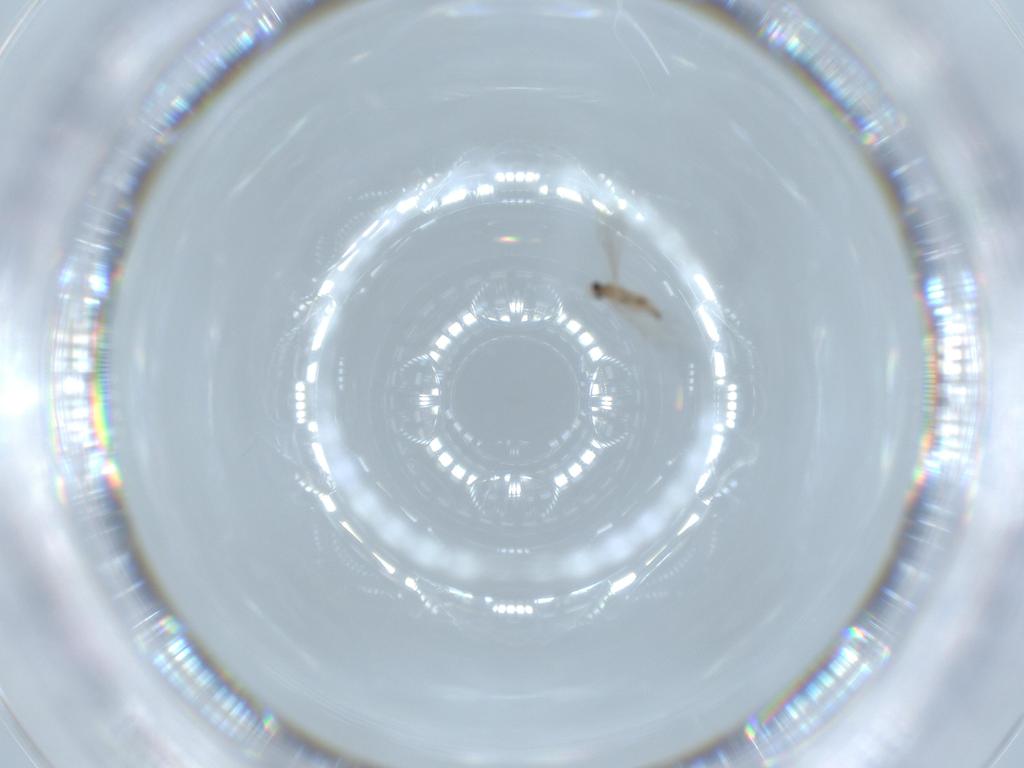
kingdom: Animalia
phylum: Arthropoda
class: Insecta
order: Diptera
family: Cecidomyiidae
